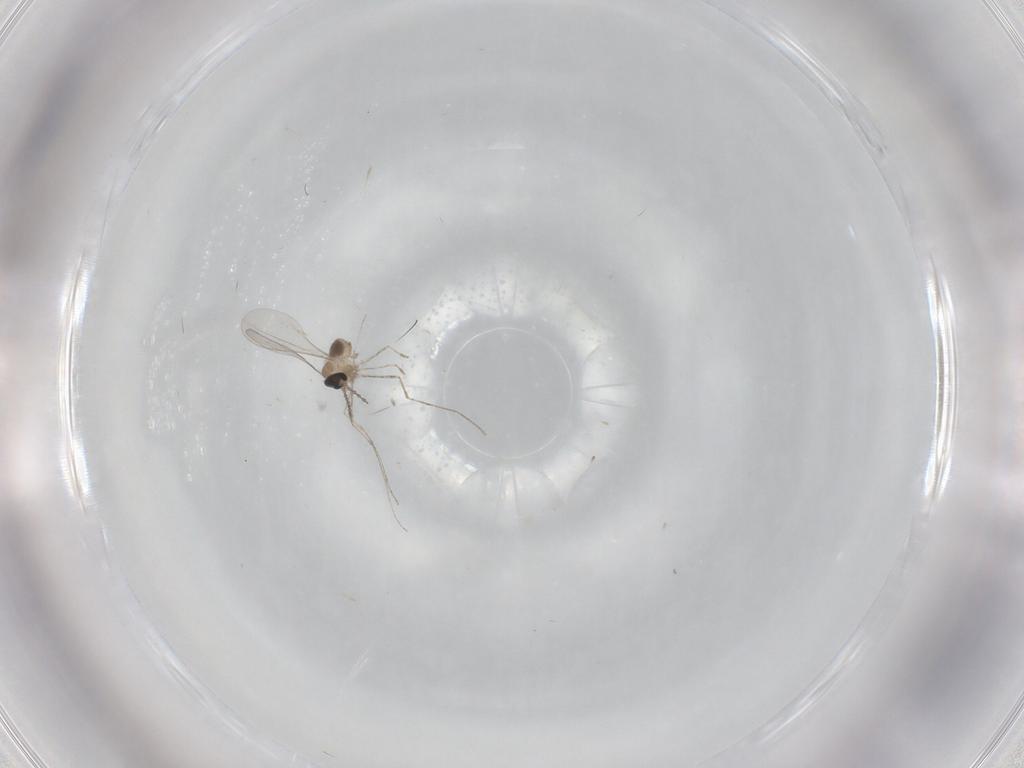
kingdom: Animalia
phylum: Arthropoda
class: Insecta
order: Diptera
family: Cecidomyiidae
